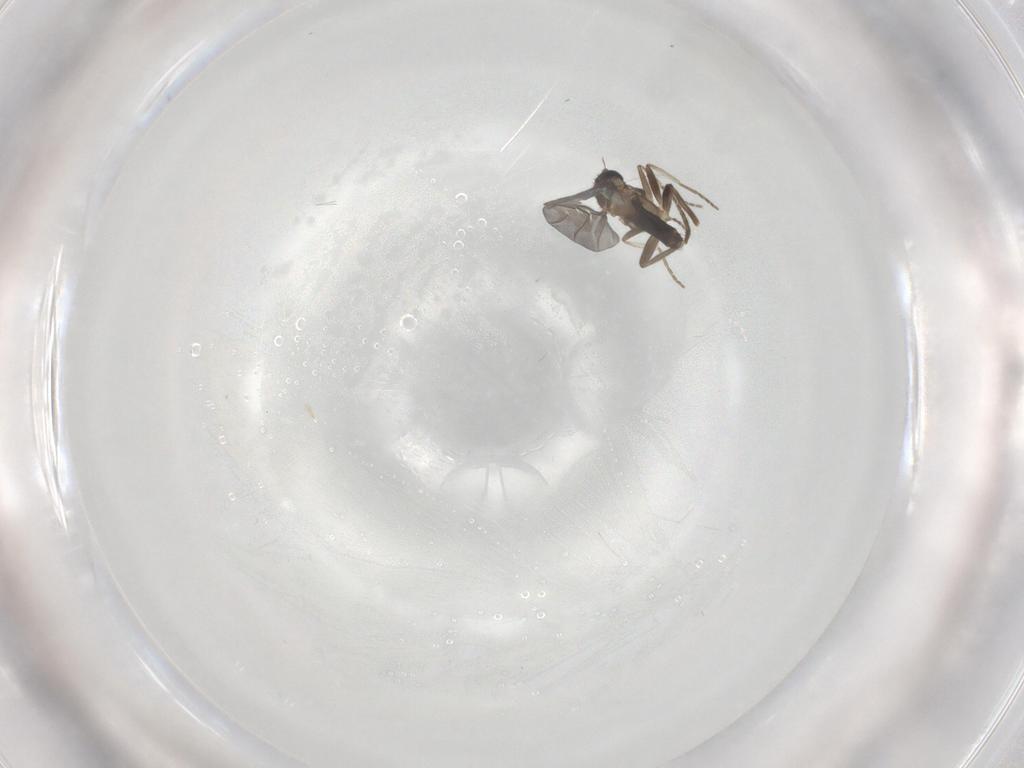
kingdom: Animalia
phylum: Arthropoda
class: Insecta
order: Diptera
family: Phoridae
